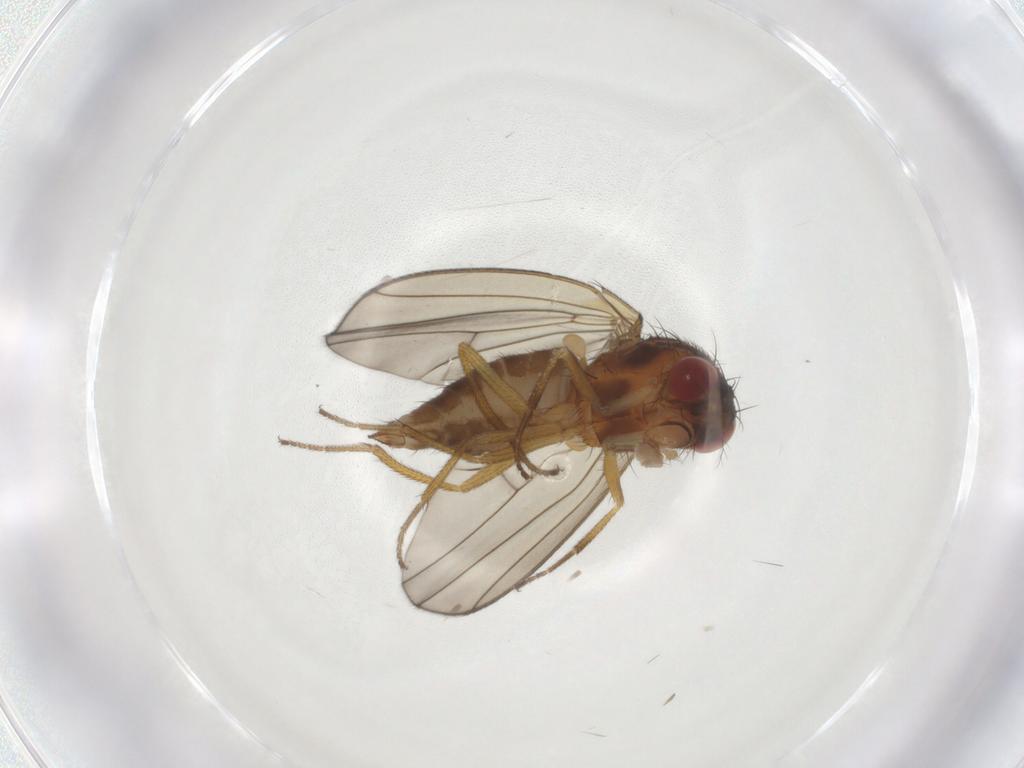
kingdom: Animalia
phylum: Arthropoda
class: Insecta
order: Diptera
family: Drosophilidae
